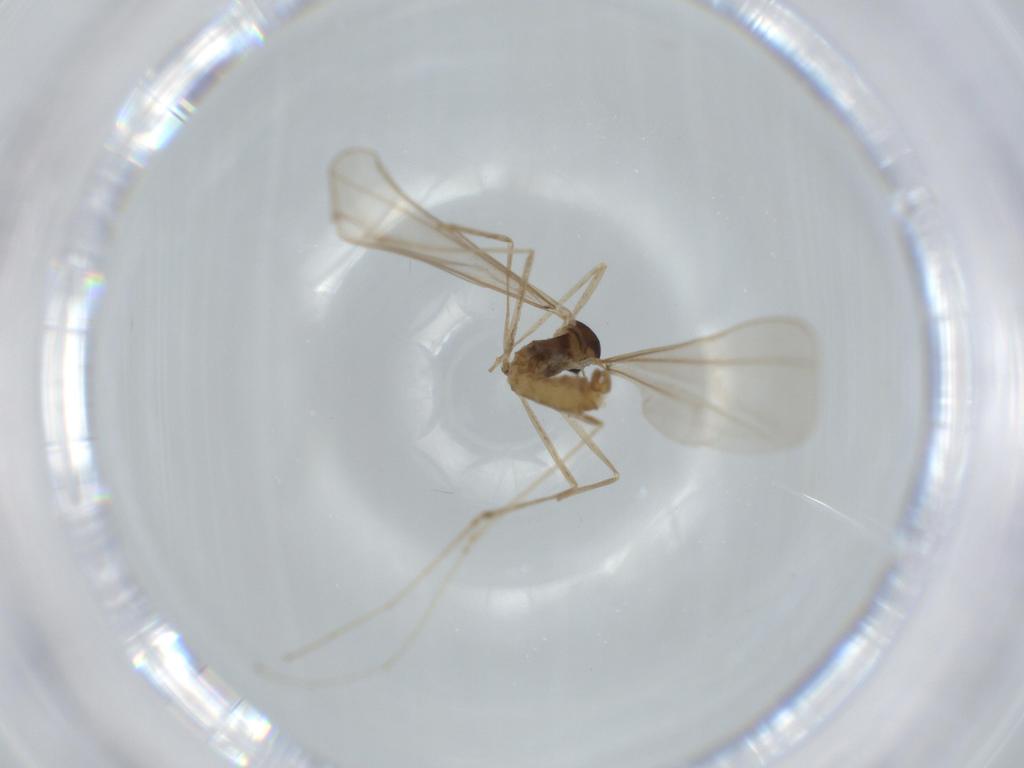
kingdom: Animalia
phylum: Arthropoda
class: Insecta
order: Diptera
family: Cecidomyiidae
